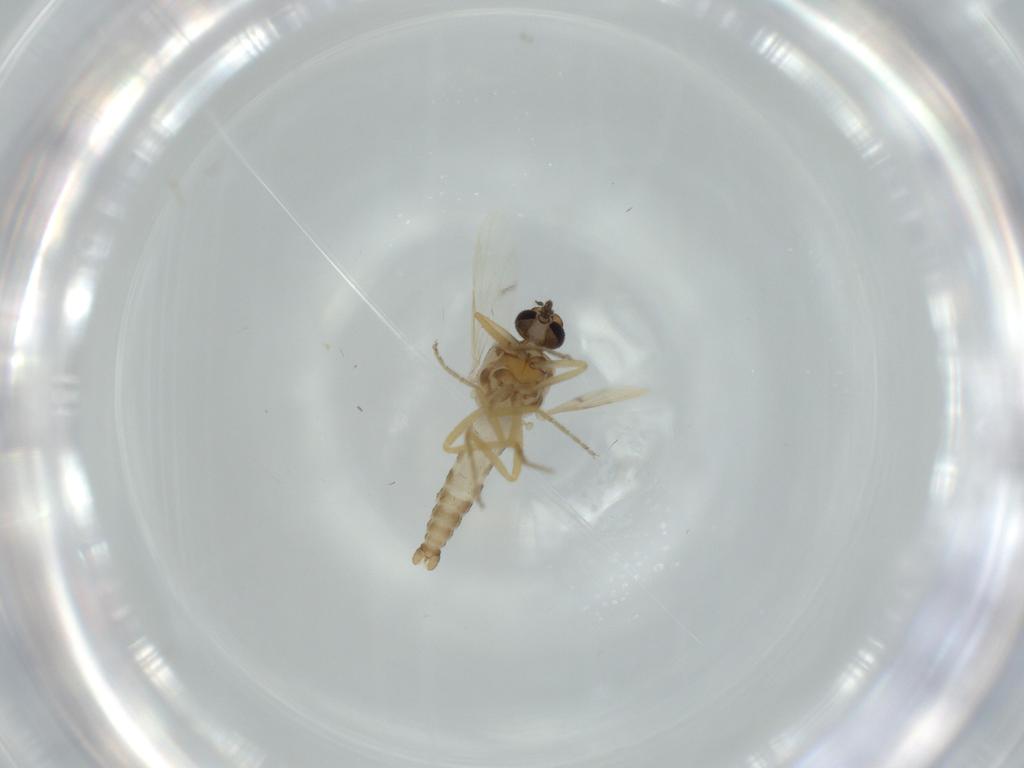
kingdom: Animalia
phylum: Arthropoda
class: Insecta
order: Diptera
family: Ceratopogonidae
